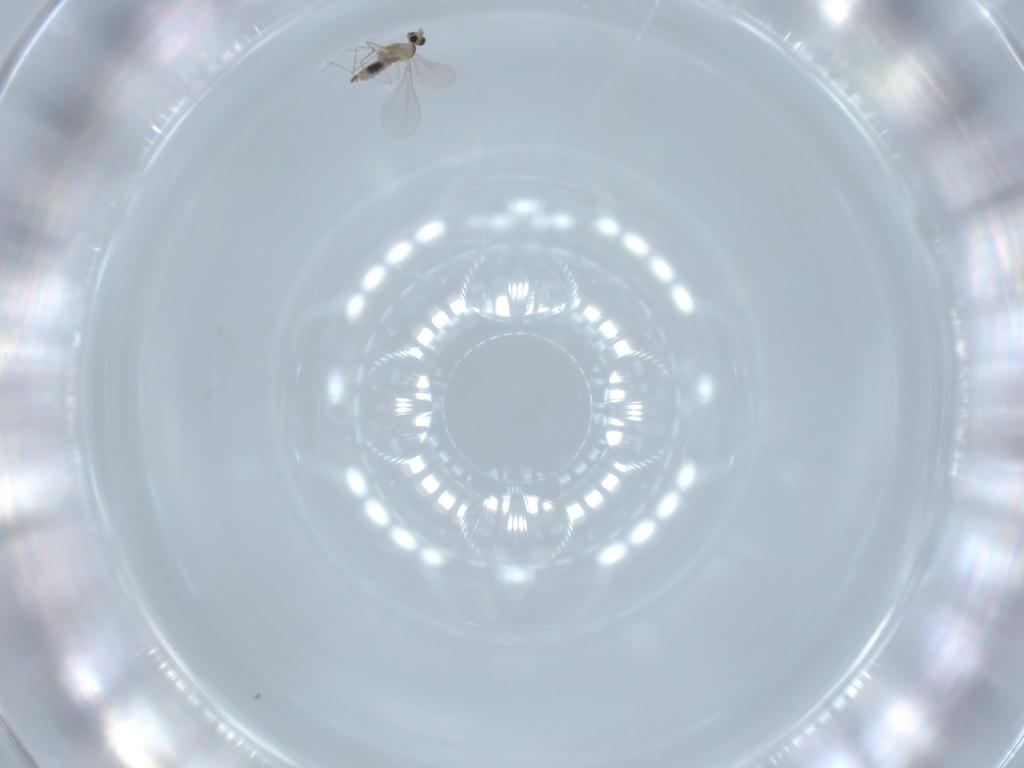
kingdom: Animalia
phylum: Arthropoda
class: Insecta
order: Diptera
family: Cecidomyiidae
